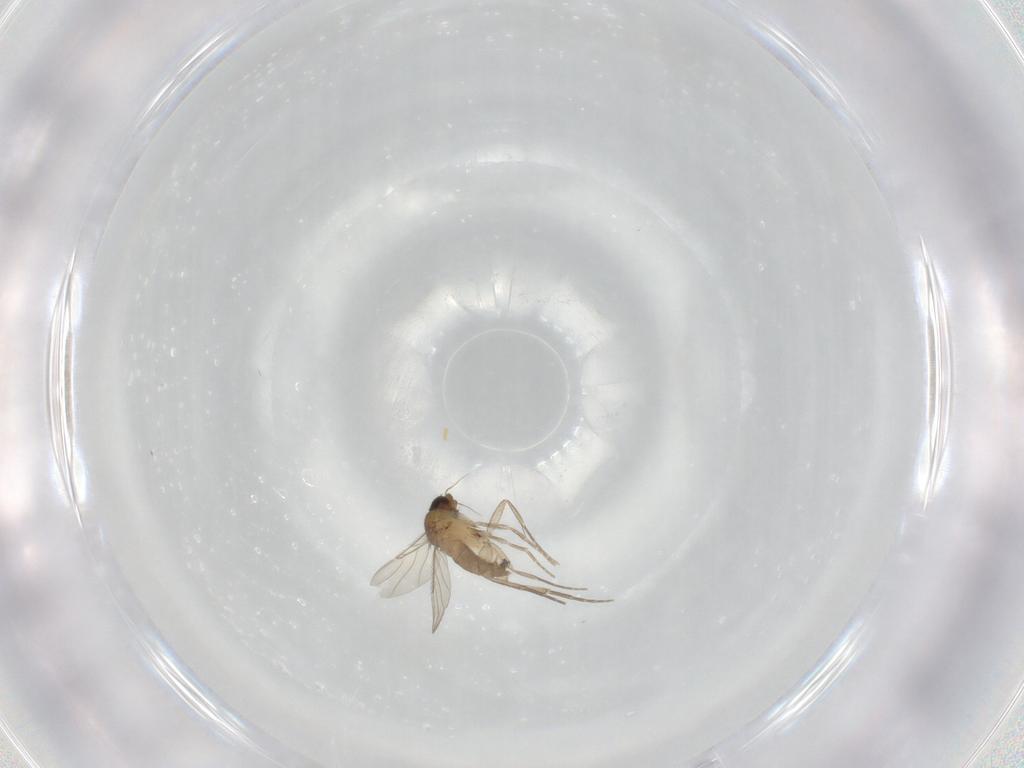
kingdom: Animalia
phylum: Arthropoda
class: Insecta
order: Diptera
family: Phoridae
